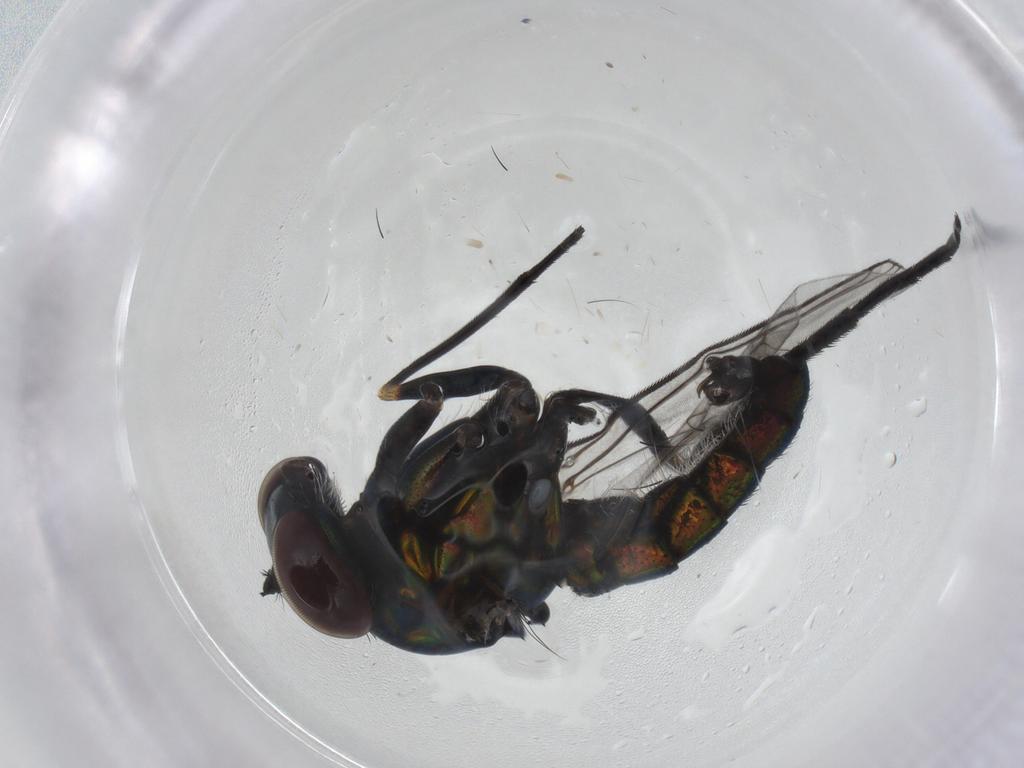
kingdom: Animalia
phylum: Arthropoda
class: Insecta
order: Diptera
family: Dolichopodidae
